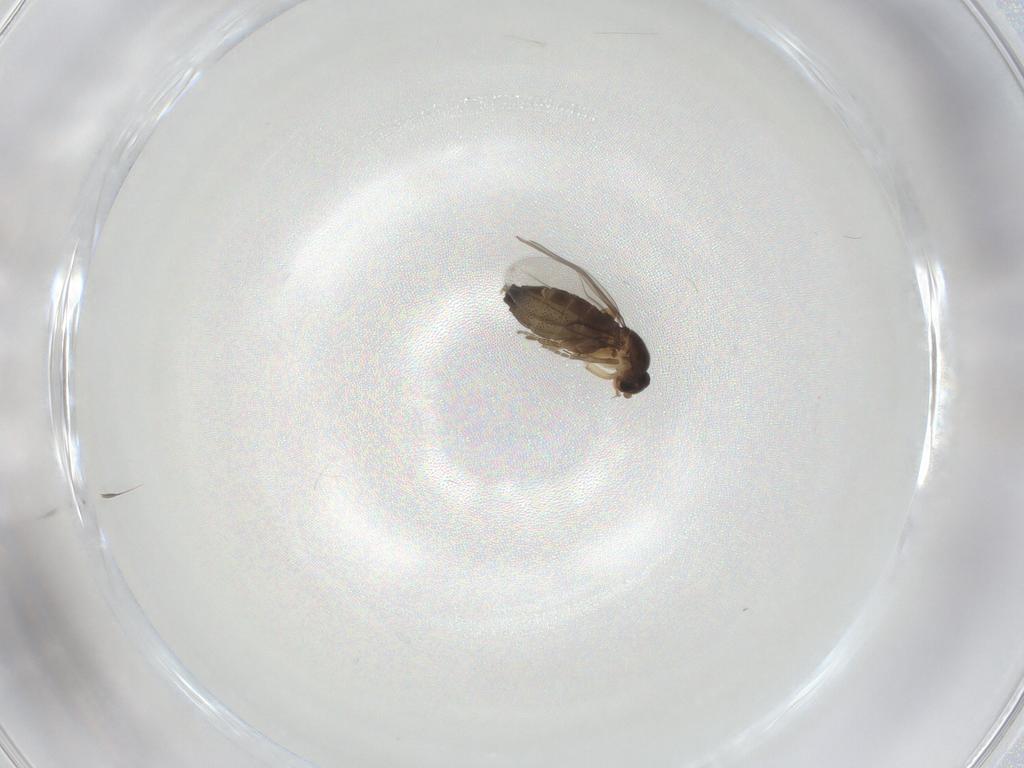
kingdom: Animalia
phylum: Arthropoda
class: Insecta
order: Diptera
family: Phoridae
